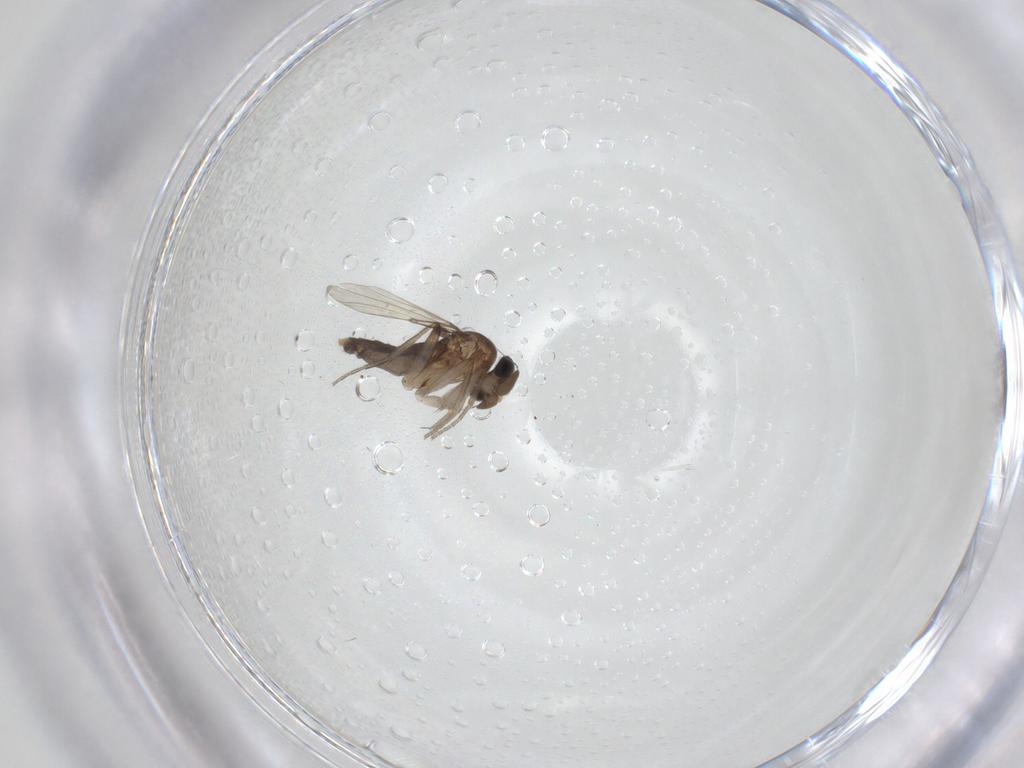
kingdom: Animalia
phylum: Arthropoda
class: Insecta
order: Diptera
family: Phoridae
